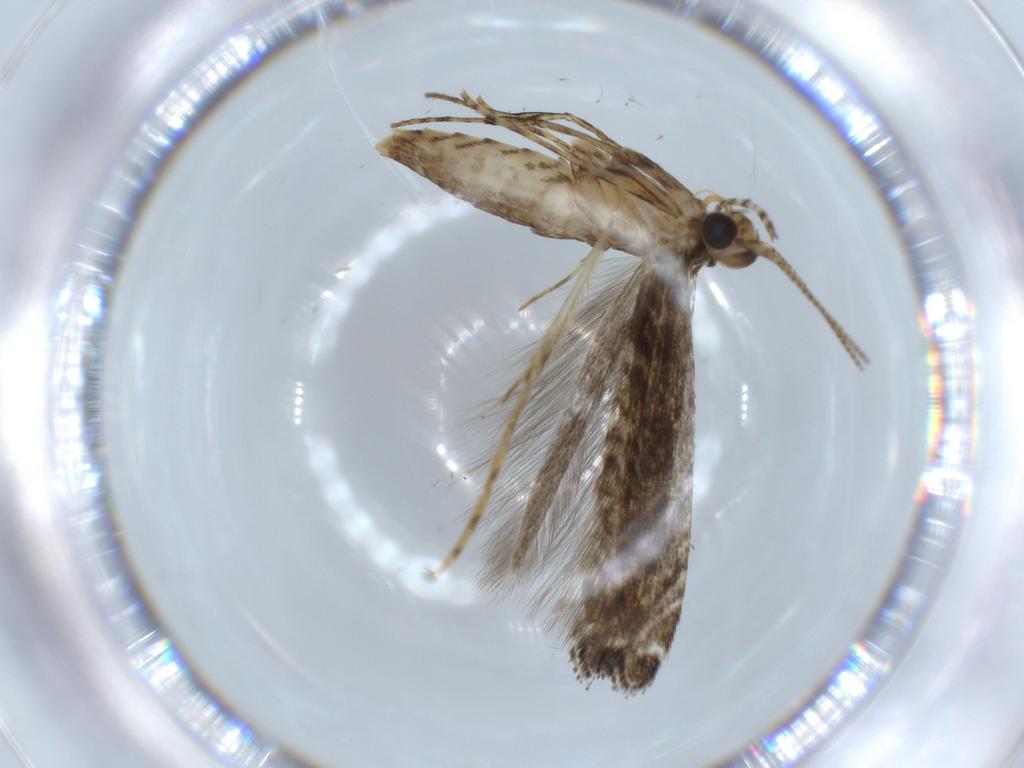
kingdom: Animalia
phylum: Arthropoda
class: Insecta
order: Lepidoptera
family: Gracillariidae
